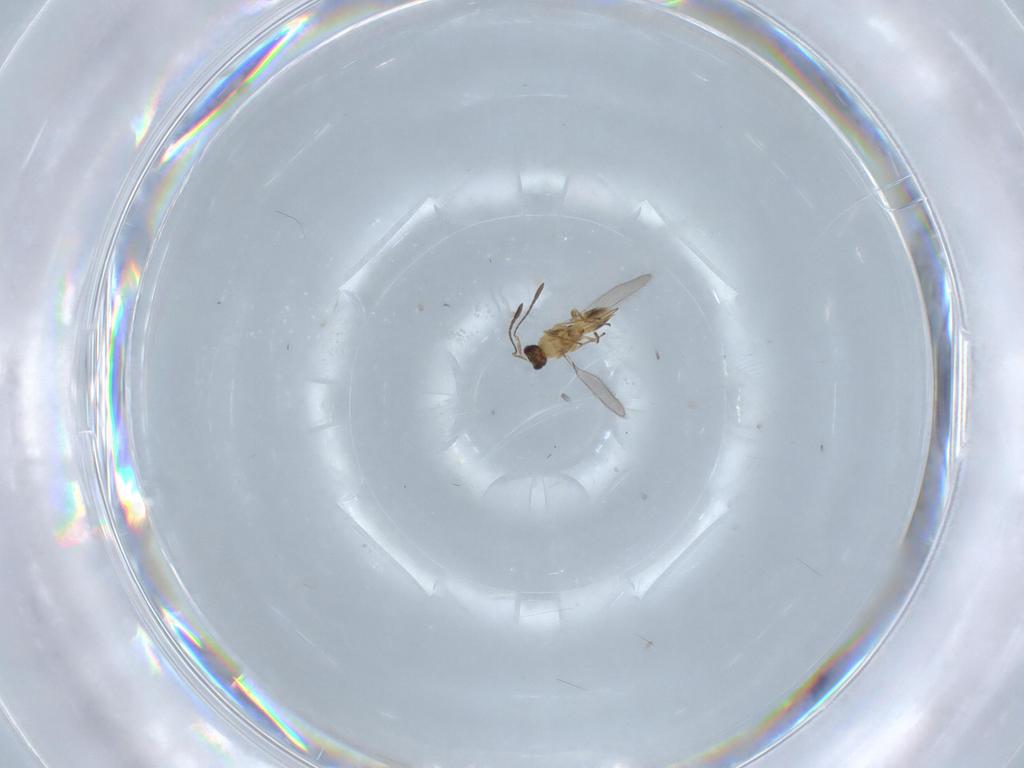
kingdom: Animalia
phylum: Arthropoda
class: Insecta
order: Hymenoptera
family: Mymaridae
